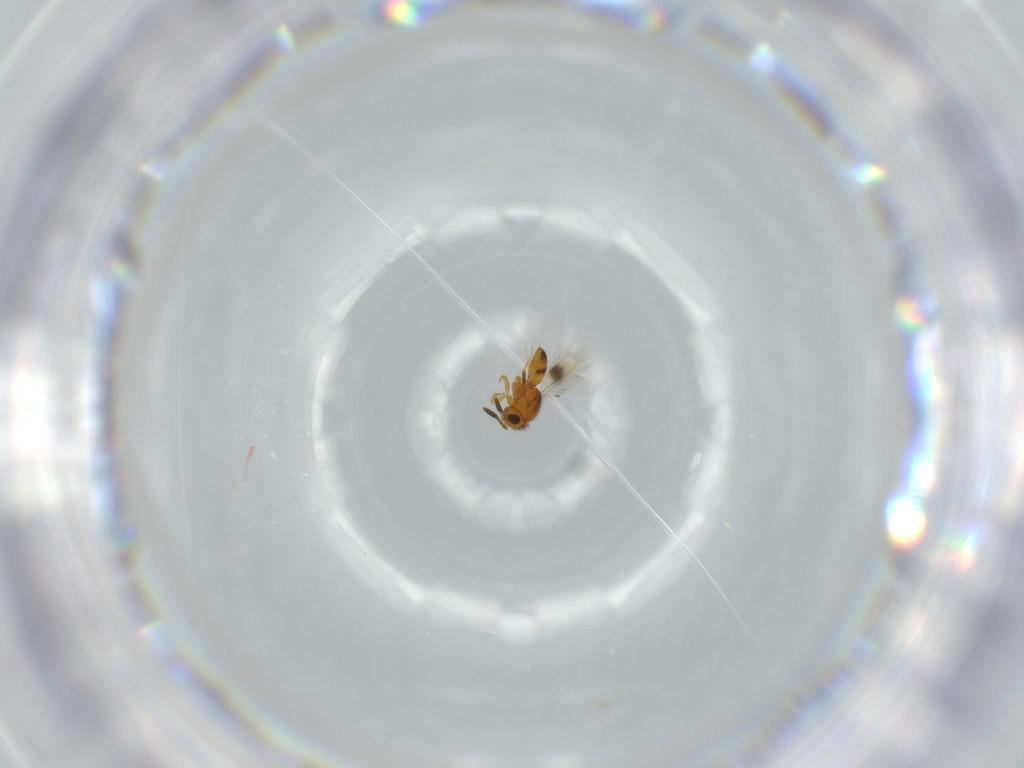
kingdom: Animalia
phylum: Arthropoda
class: Insecta
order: Hymenoptera
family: Scelionidae
